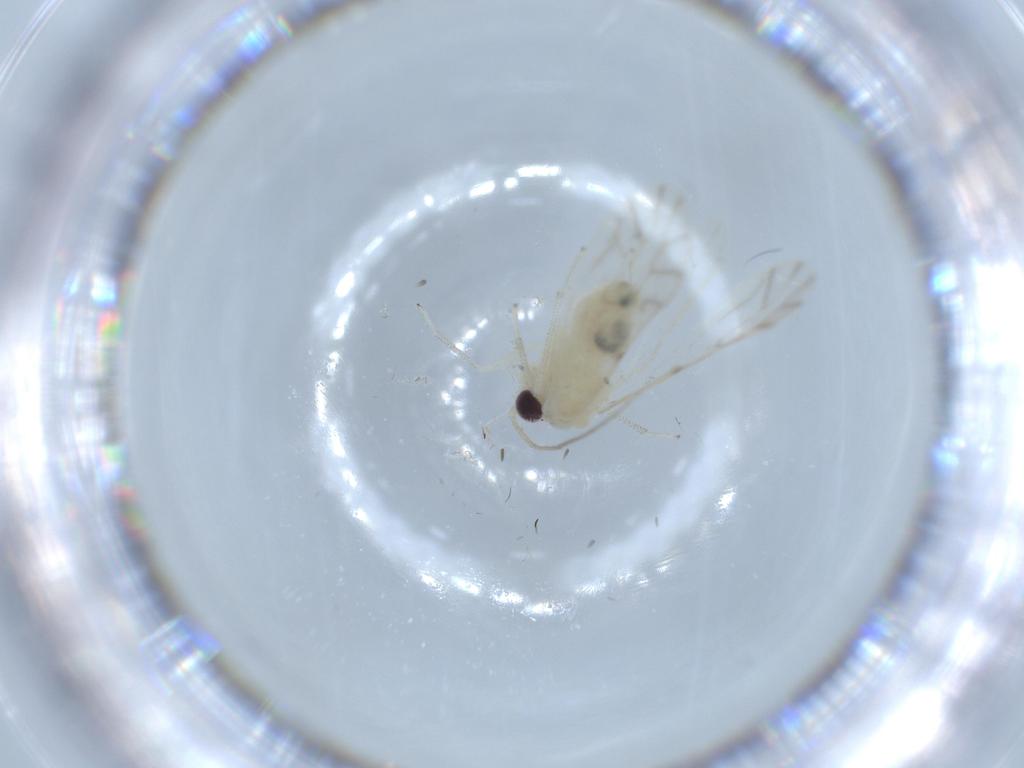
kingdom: Animalia
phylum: Arthropoda
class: Insecta
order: Psocodea
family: Caeciliusidae
